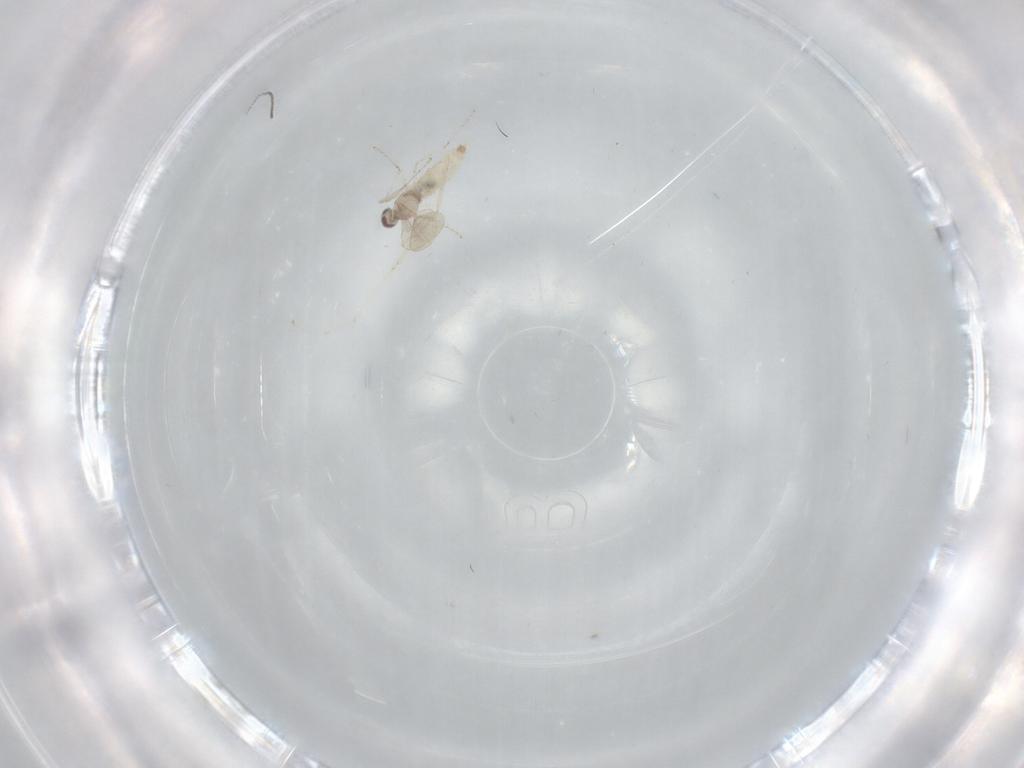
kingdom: Animalia
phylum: Arthropoda
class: Insecta
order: Diptera
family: Cecidomyiidae
